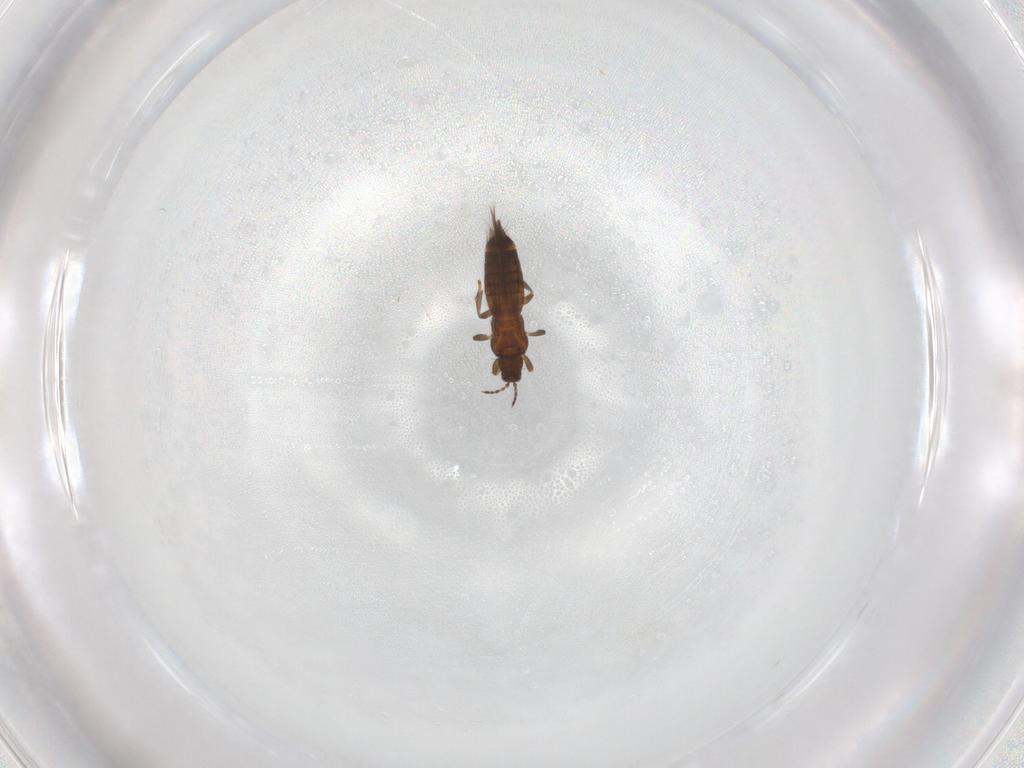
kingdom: Animalia
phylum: Arthropoda
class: Insecta
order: Thysanoptera
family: Thripidae
